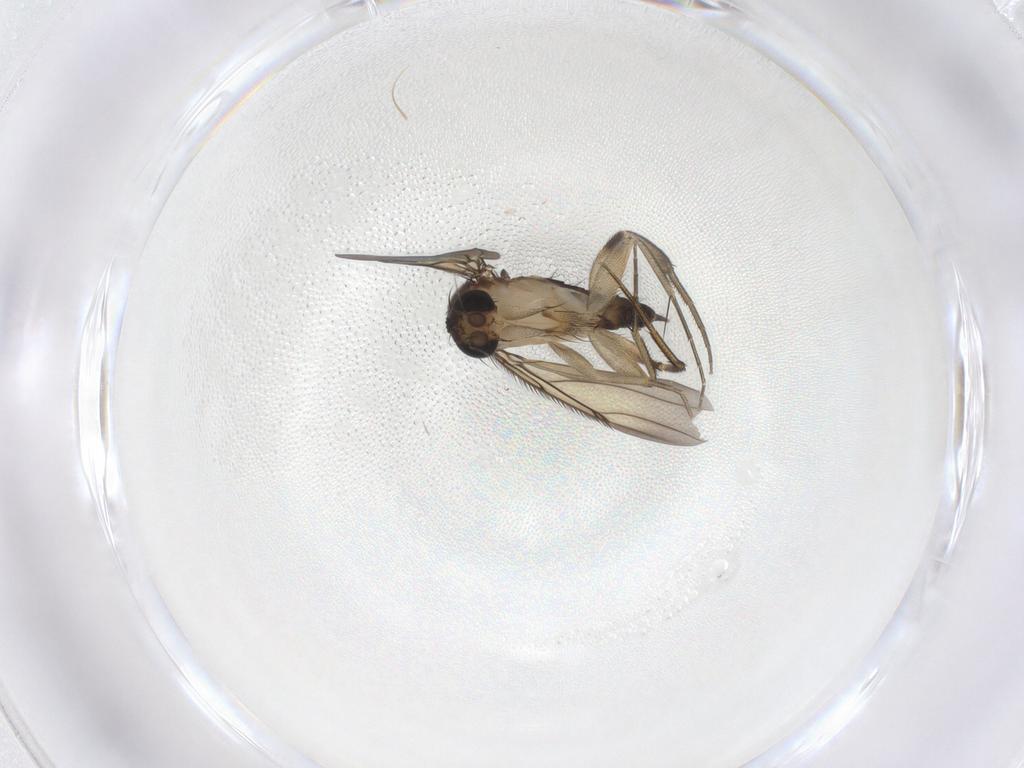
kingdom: Animalia
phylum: Arthropoda
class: Insecta
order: Diptera
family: Phoridae
